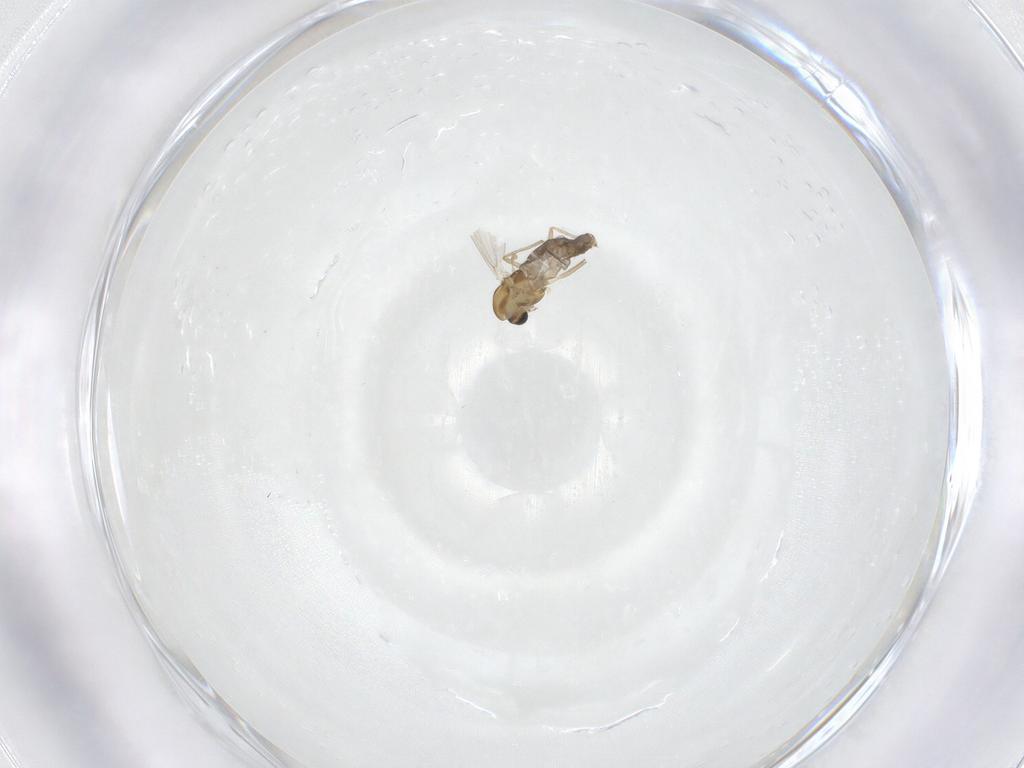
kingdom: Animalia
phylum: Arthropoda
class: Insecta
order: Diptera
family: Chironomidae
